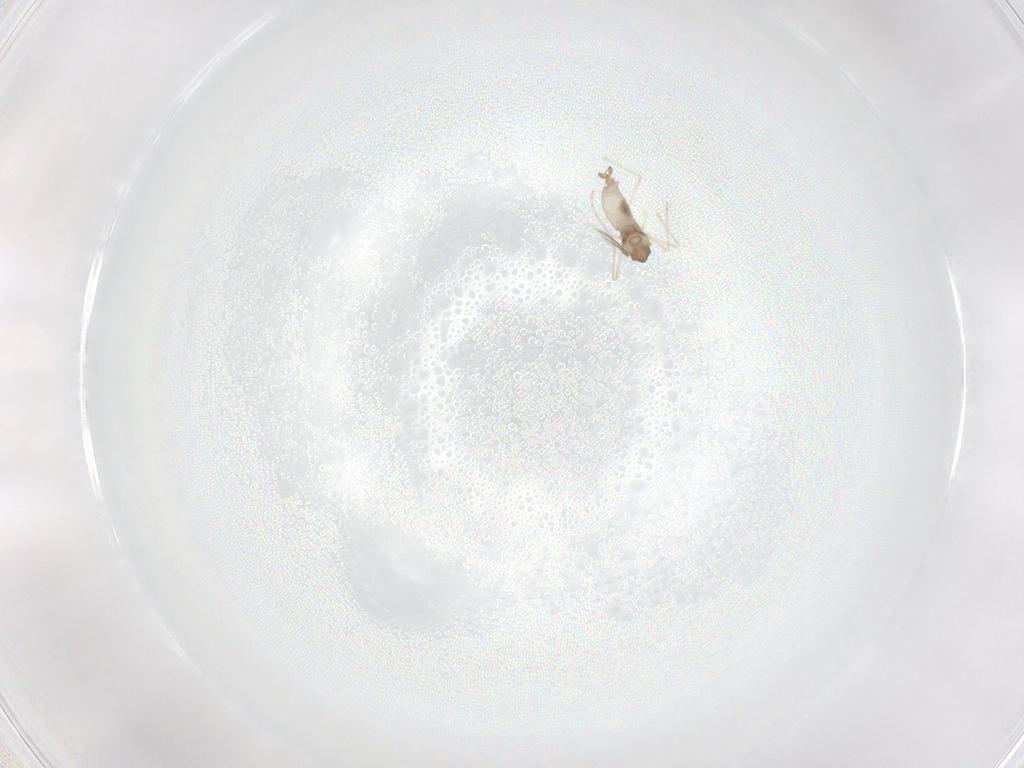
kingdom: Animalia
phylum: Arthropoda
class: Insecta
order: Diptera
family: Cecidomyiidae
